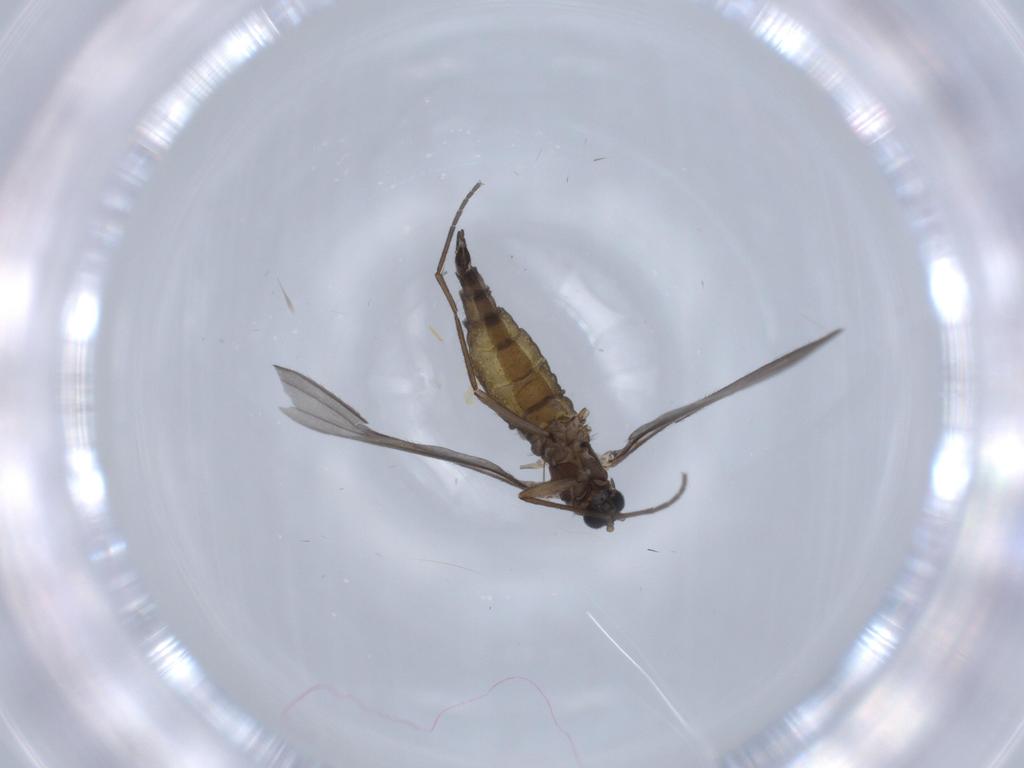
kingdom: Animalia
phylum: Arthropoda
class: Insecta
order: Diptera
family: Sciaridae
